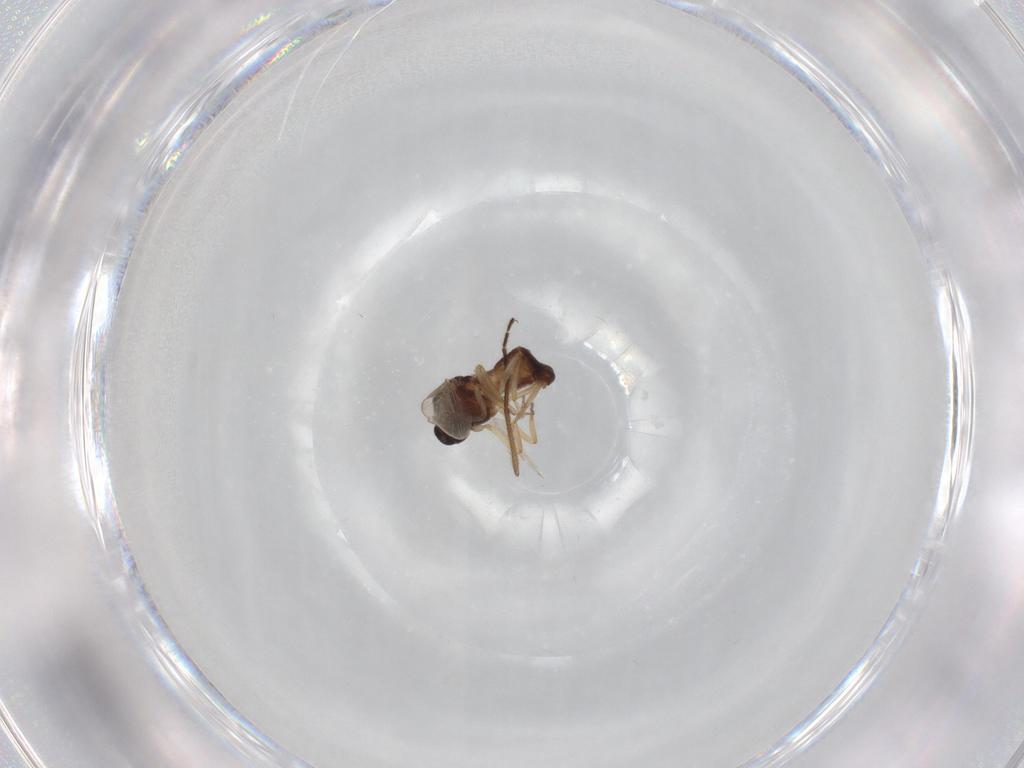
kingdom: Animalia
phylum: Arthropoda
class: Insecta
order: Diptera
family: Ceratopogonidae
